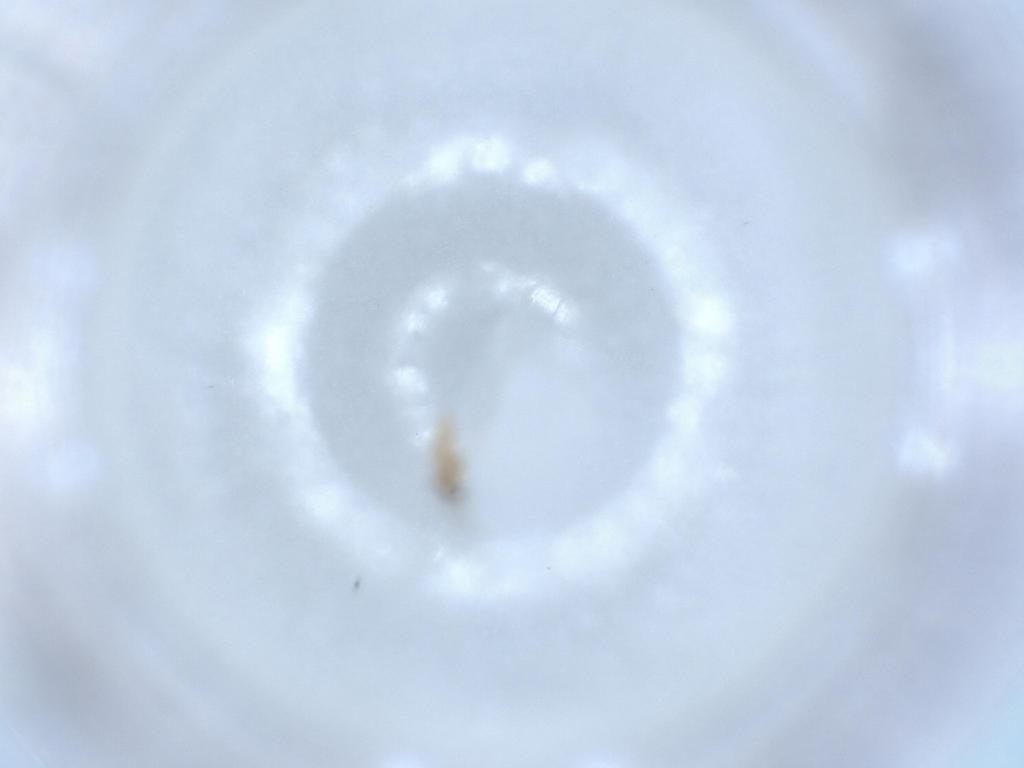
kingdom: Animalia
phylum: Arthropoda
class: Insecta
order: Diptera
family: Cecidomyiidae
